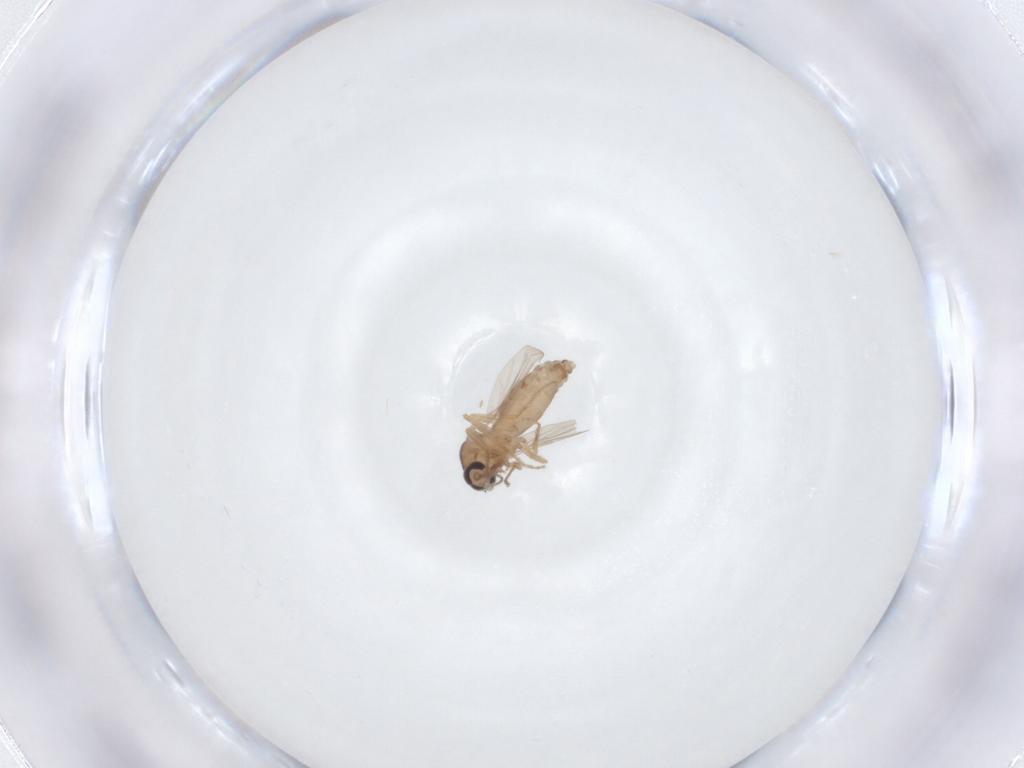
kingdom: Animalia
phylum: Arthropoda
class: Insecta
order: Diptera
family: Ceratopogonidae
